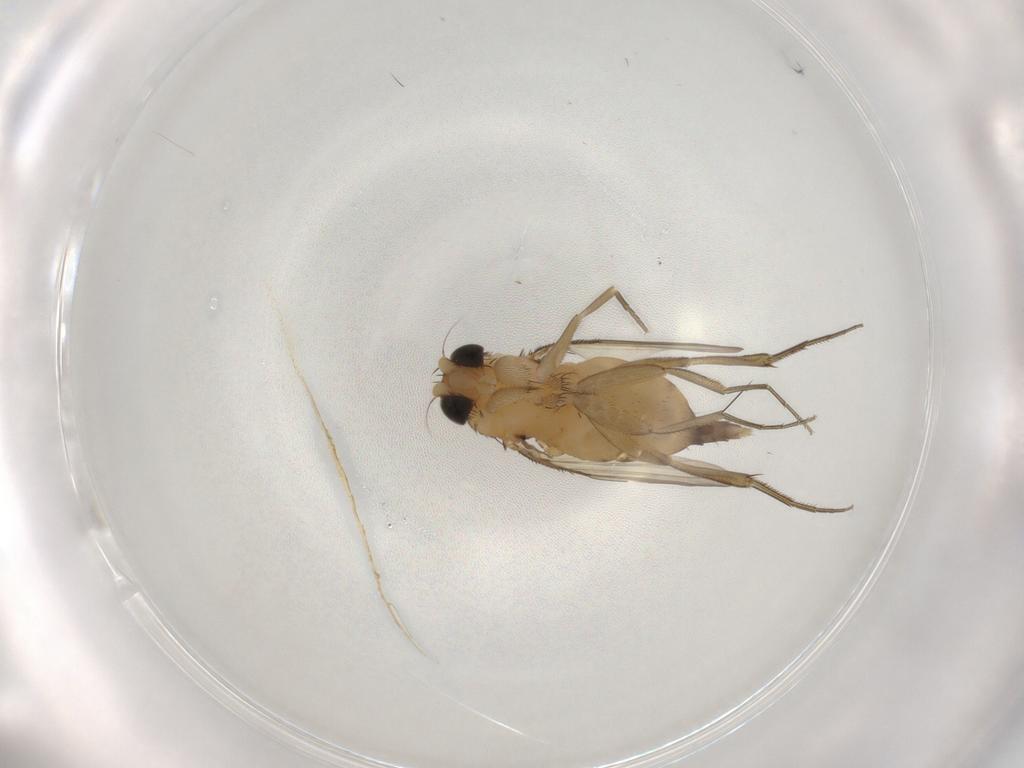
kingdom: Animalia
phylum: Arthropoda
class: Insecta
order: Diptera
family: Phoridae
